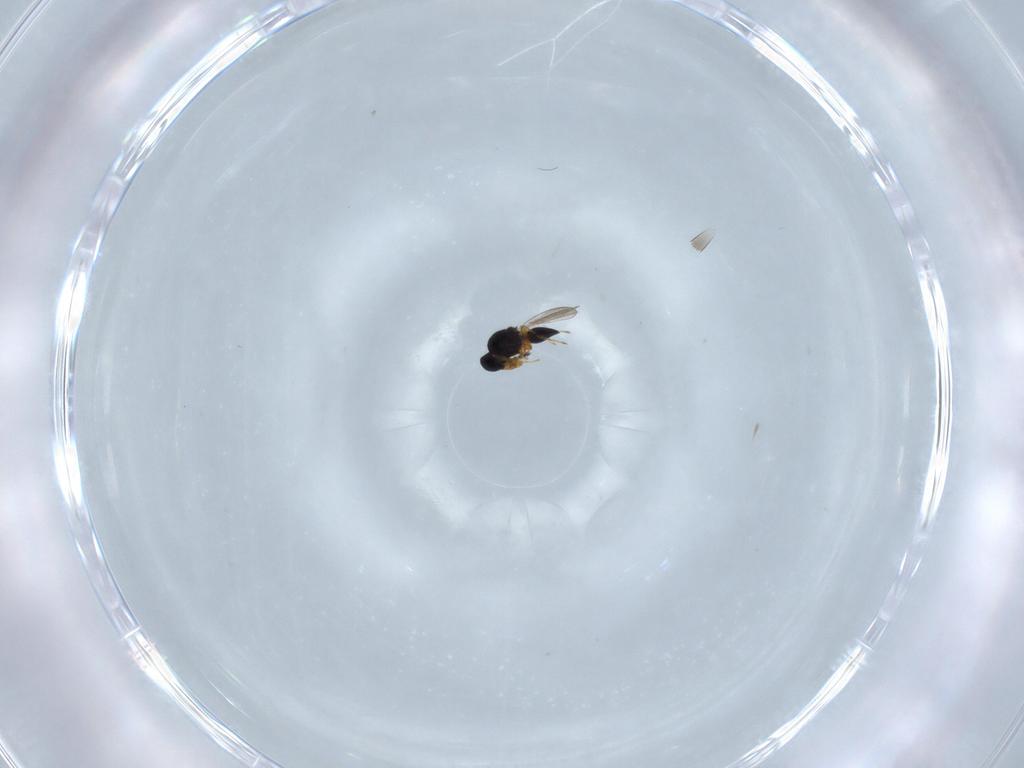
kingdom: Animalia
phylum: Arthropoda
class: Insecta
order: Hymenoptera
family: Platygastridae
